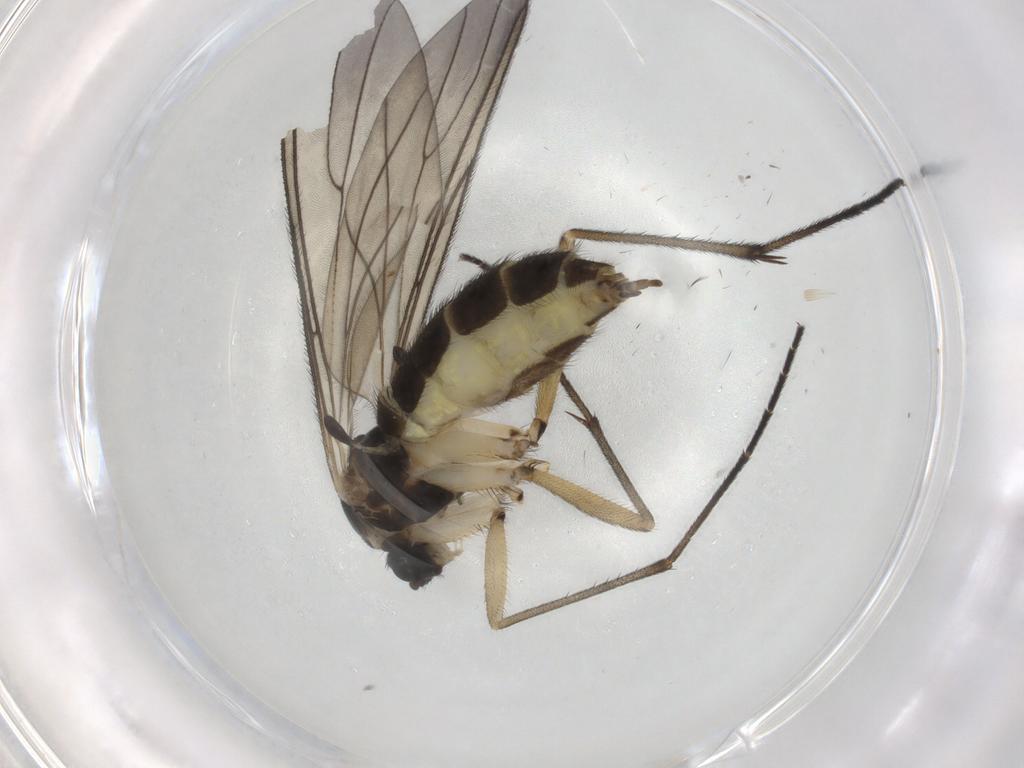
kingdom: Animalia
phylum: Arthropoda
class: Insecta
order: Diptera
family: Sciaridae
